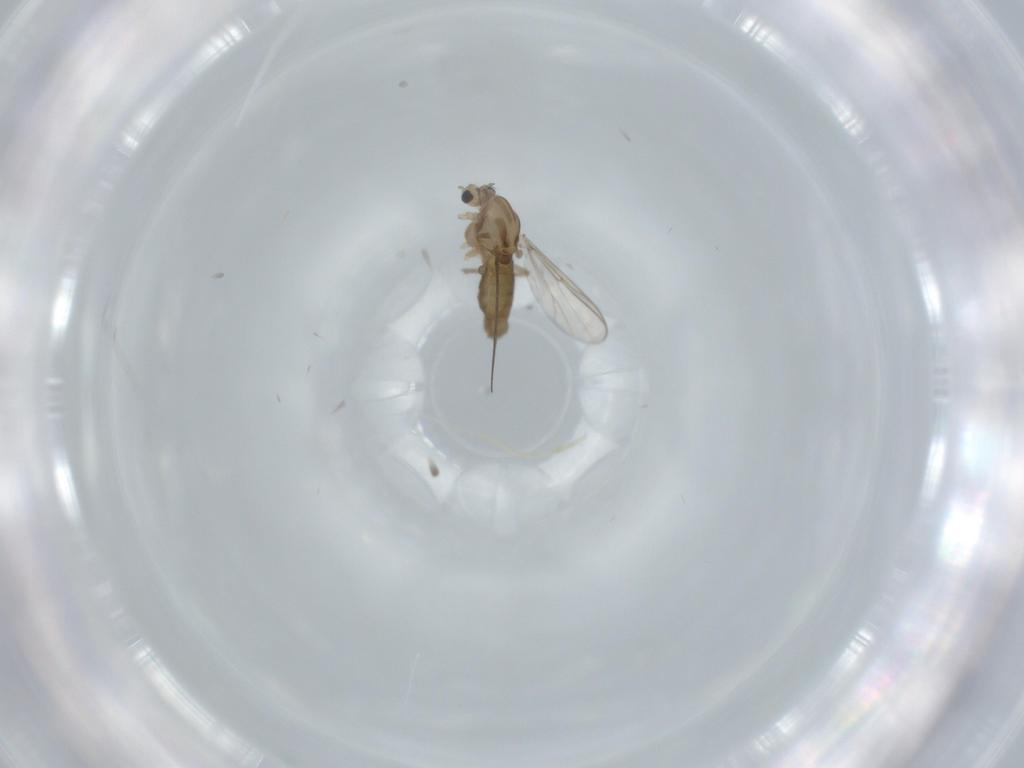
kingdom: Animalia
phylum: Arthropoda
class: Insecta
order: Diptera
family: Chironomidae
